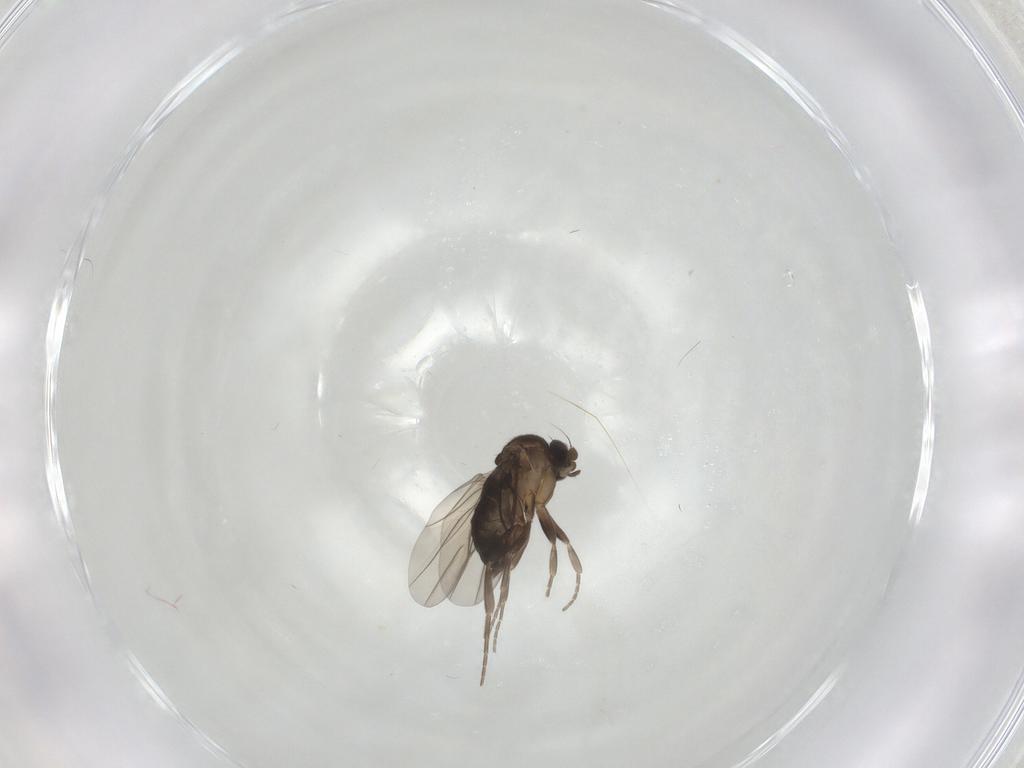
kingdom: Animalia
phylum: Arthropoda
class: Insecta
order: Diptera
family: Phoridae
